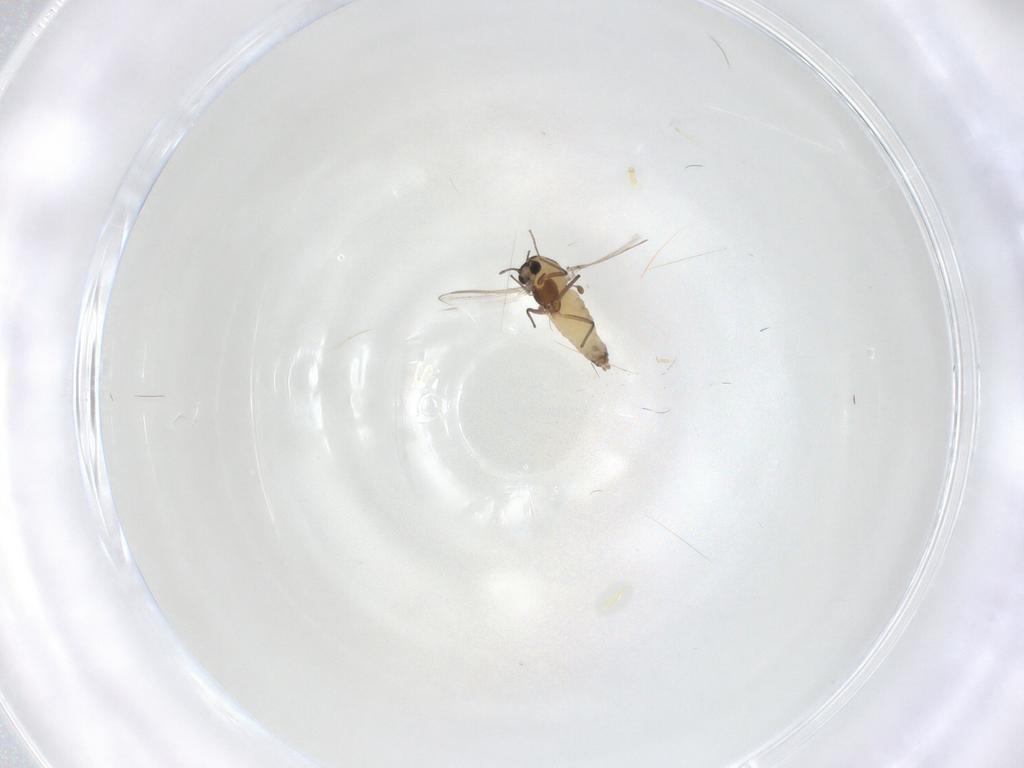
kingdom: Animalia
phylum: Arthropoda
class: Insecta
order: Diptera
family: Chironomidae
